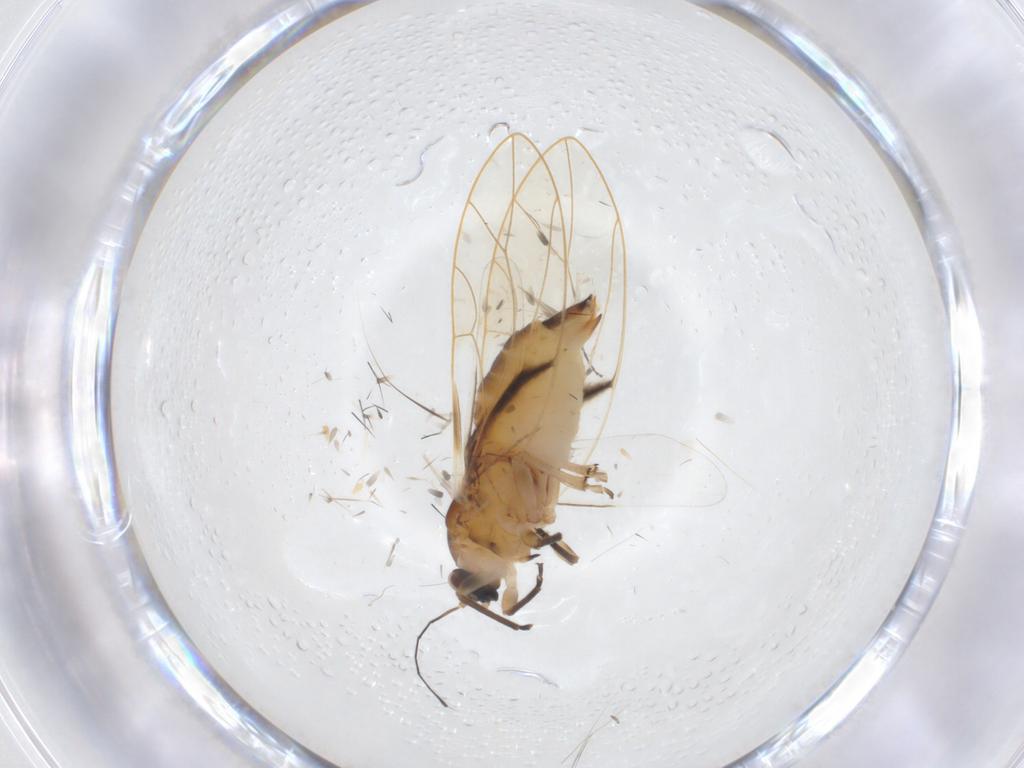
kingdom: Animalia
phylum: Arthropoda
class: Insecta
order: Hemiptera
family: Psylloidea_incertae_sedis
